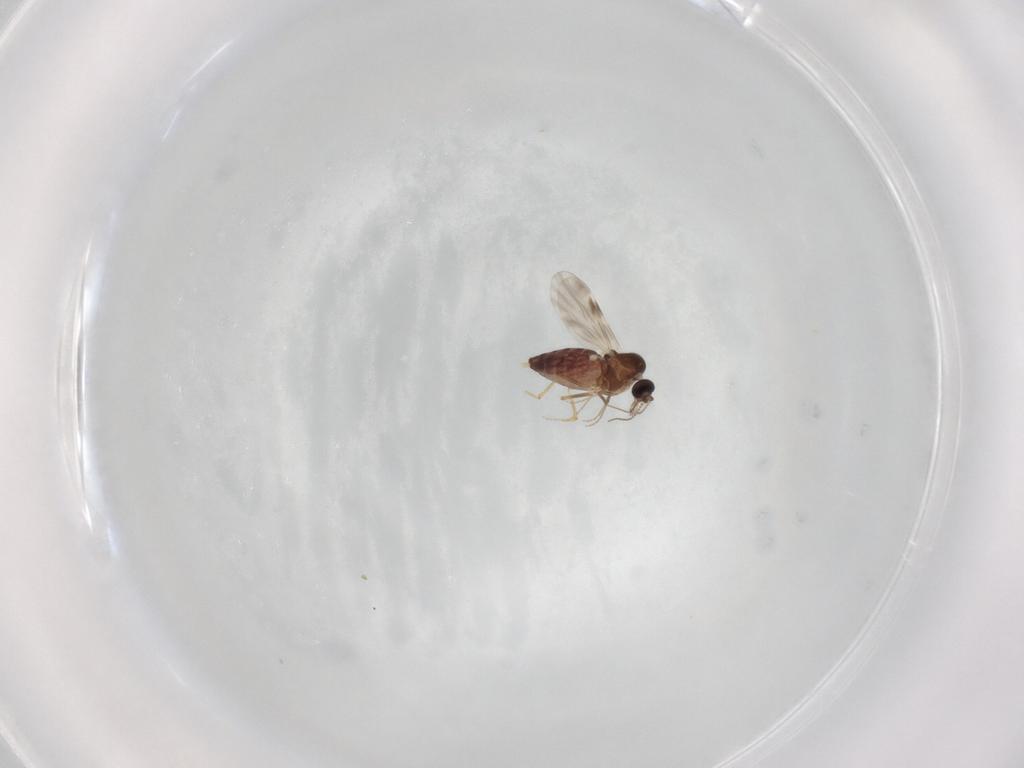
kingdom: Animalia
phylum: Arthropoda
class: Insecta
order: Diptera
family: Ceratopogonidae
